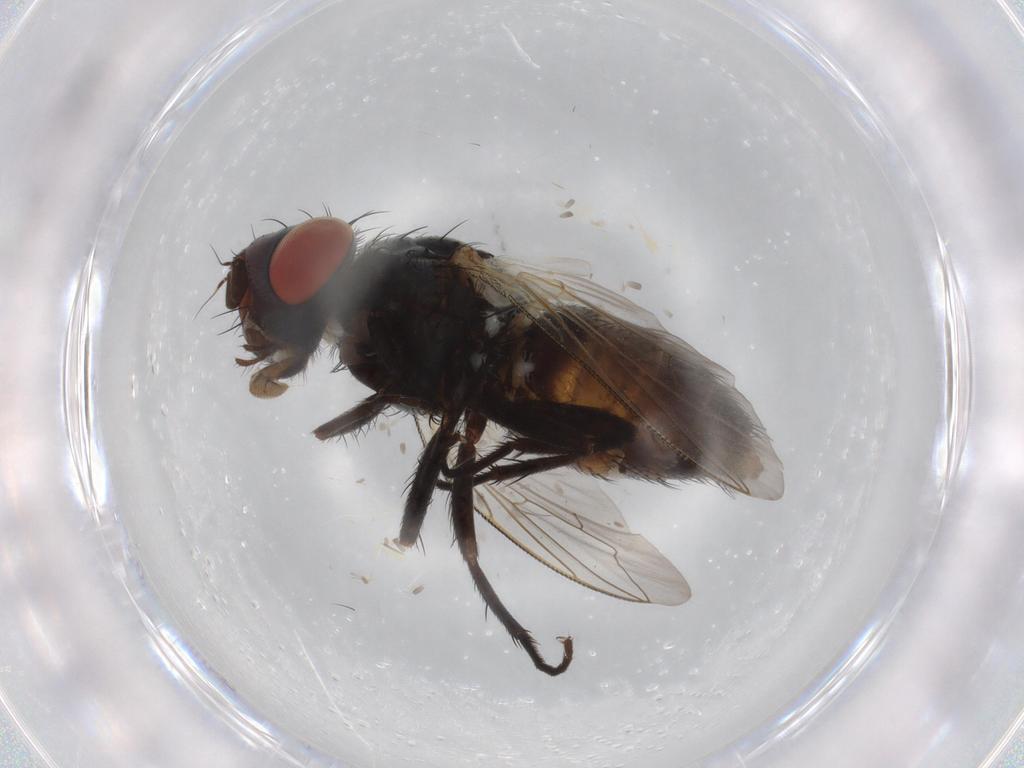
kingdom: Animalia
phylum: Arthropoda
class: Insecta
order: Diptera
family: Sarcophagidae
